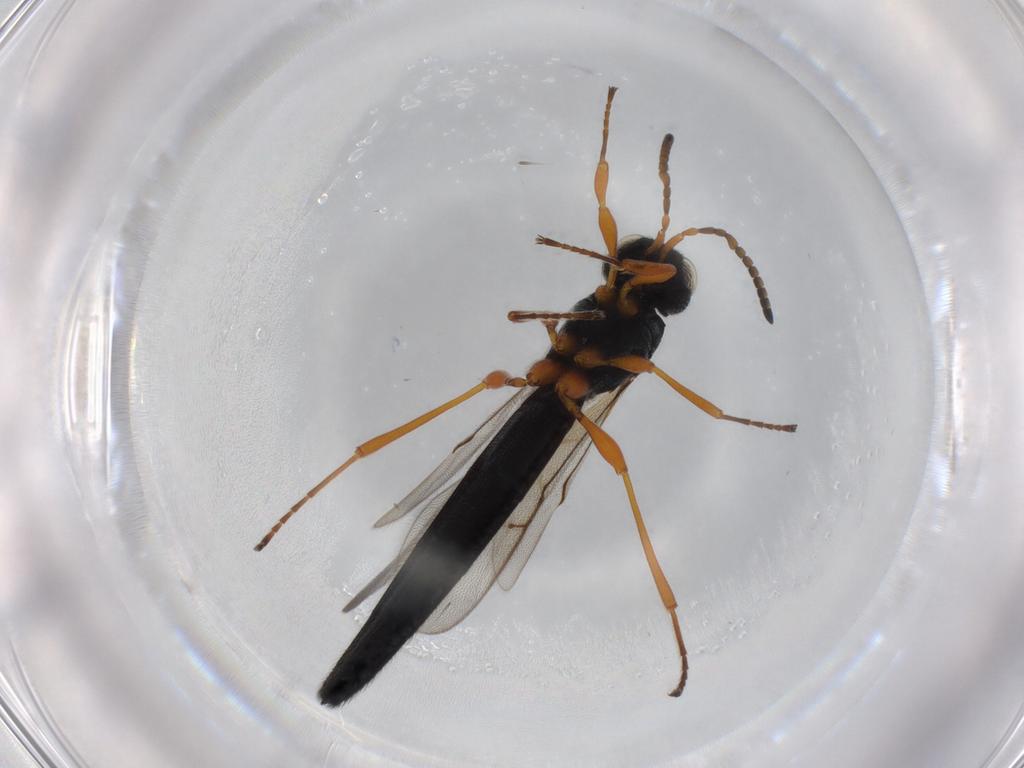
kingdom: Animalia
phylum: Arthropoda
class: Insecta
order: Hymenoptera
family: Scelionidae
